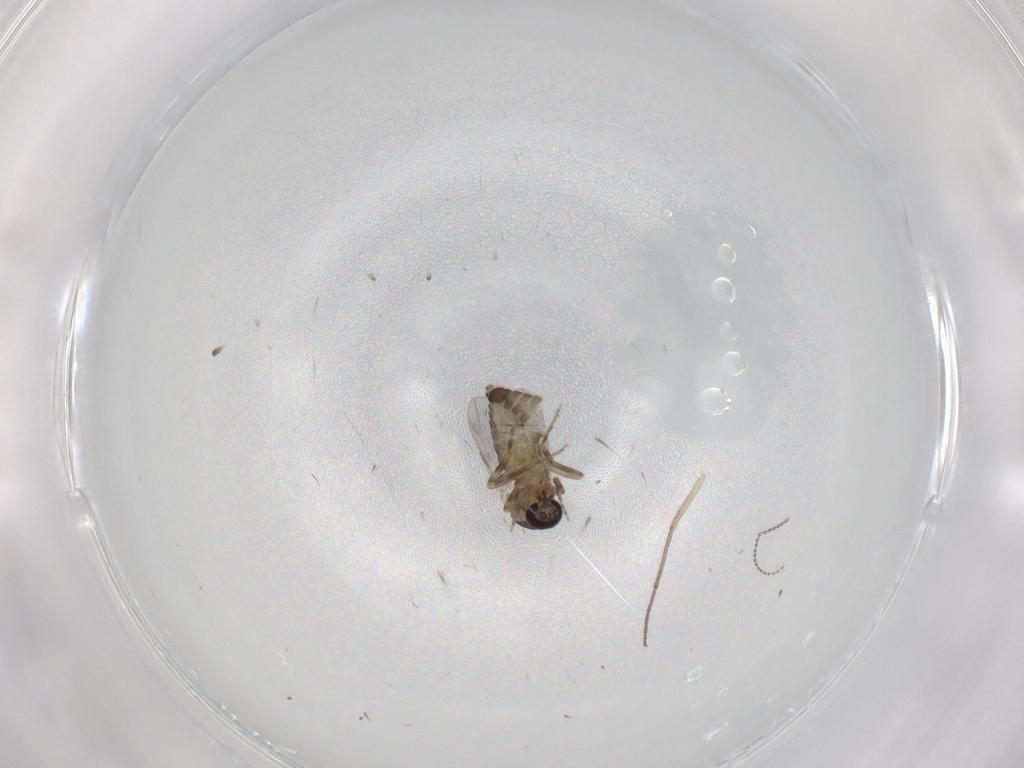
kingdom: Animalia
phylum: Arthropoda
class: Insecta
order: Diptera
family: Ceratopogonidae
